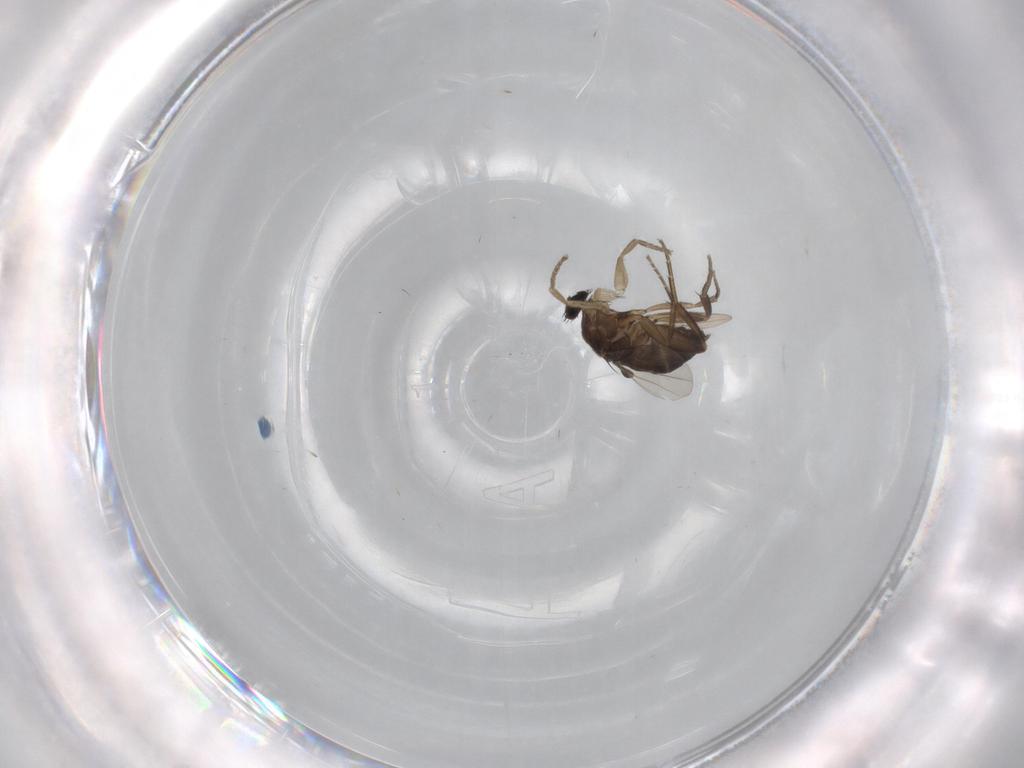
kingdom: Animalia
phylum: Arthropoda
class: Insecta
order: Diptera
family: Phoridae
